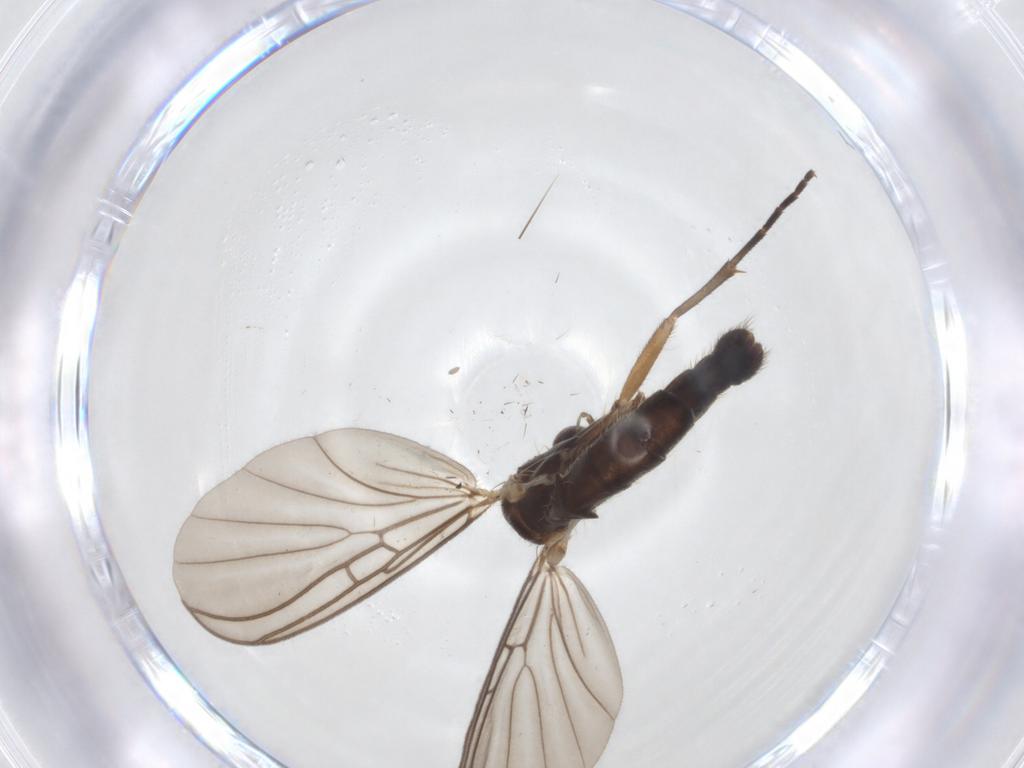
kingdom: Animalia
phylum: Arthropoda
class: Insecta
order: Diptera
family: Mycetophilidae
